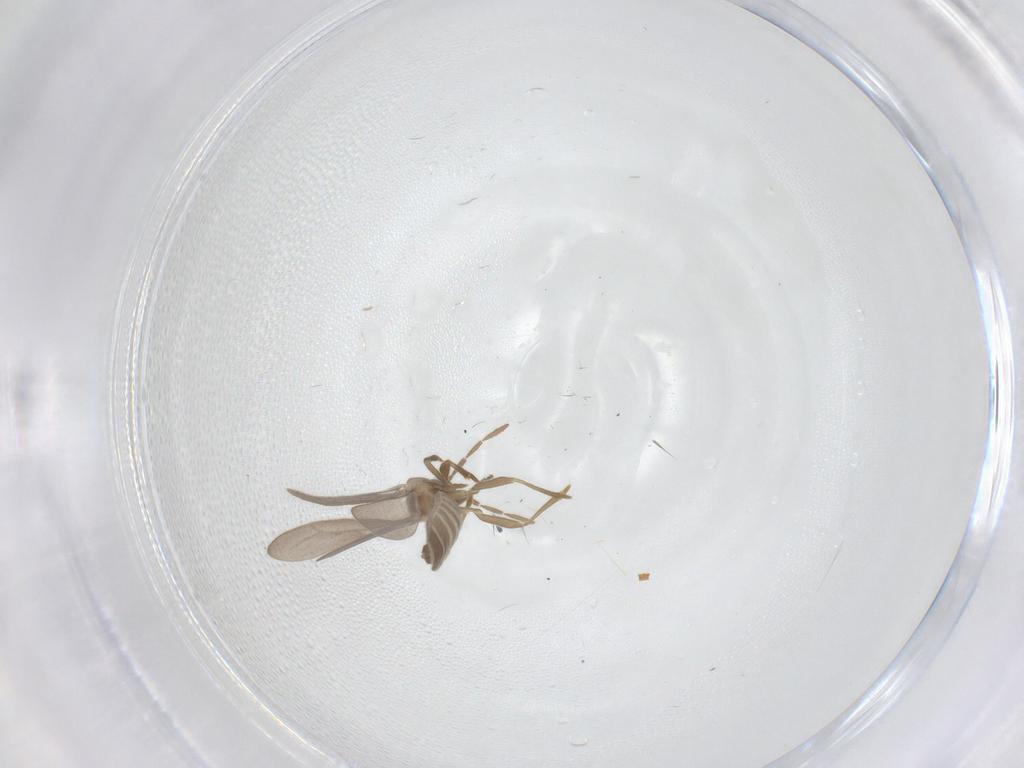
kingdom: Animalia
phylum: Arthropoda
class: Insecta
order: Hemiptera
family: Enicocephalidae
